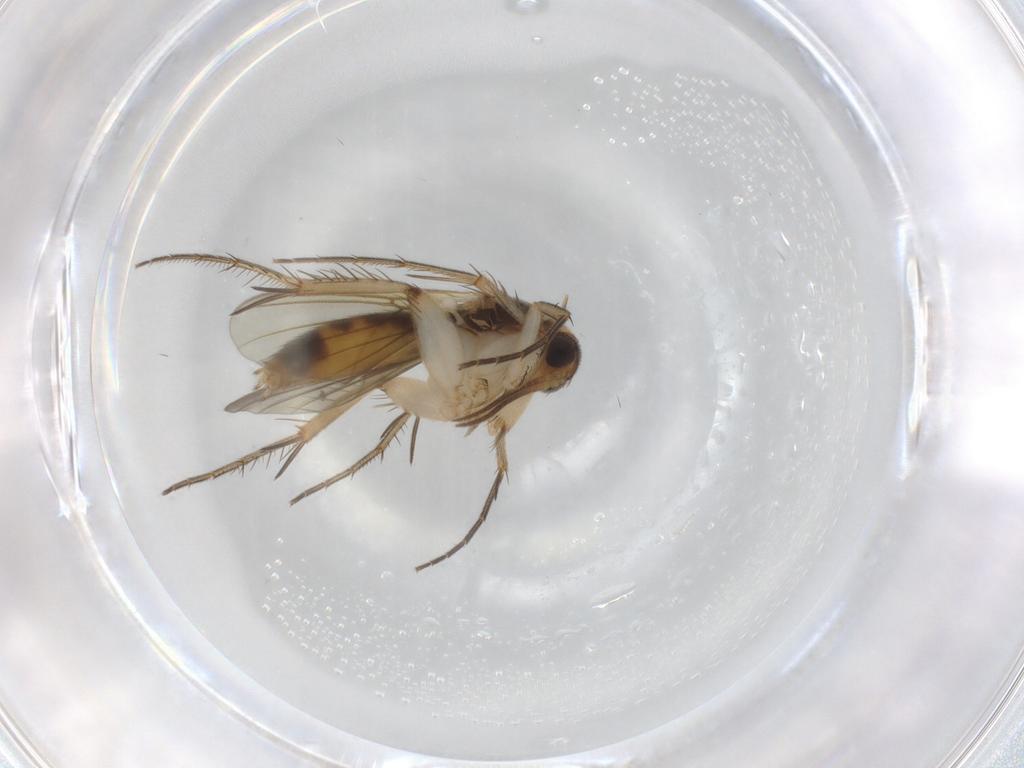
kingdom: Animalia
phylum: Arthropoda
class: Insecta
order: Diptera
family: Mycetophilidae
